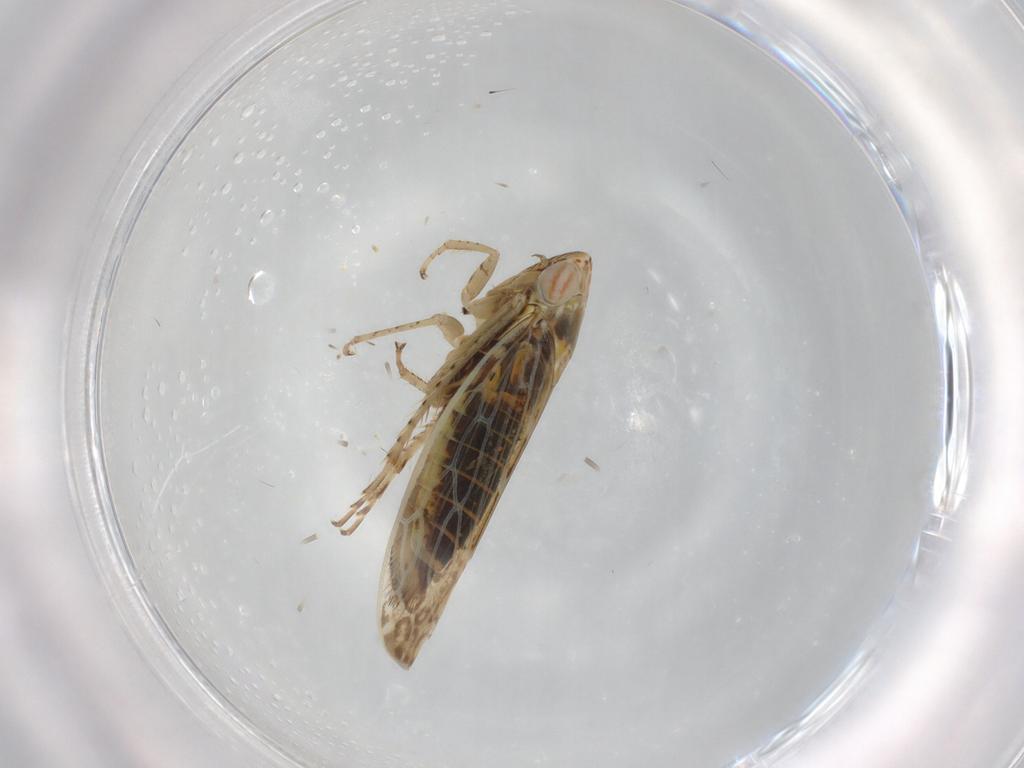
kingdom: Animalia
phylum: Arthropoda
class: Insecta
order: Hemiptera
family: Cicadellidae
